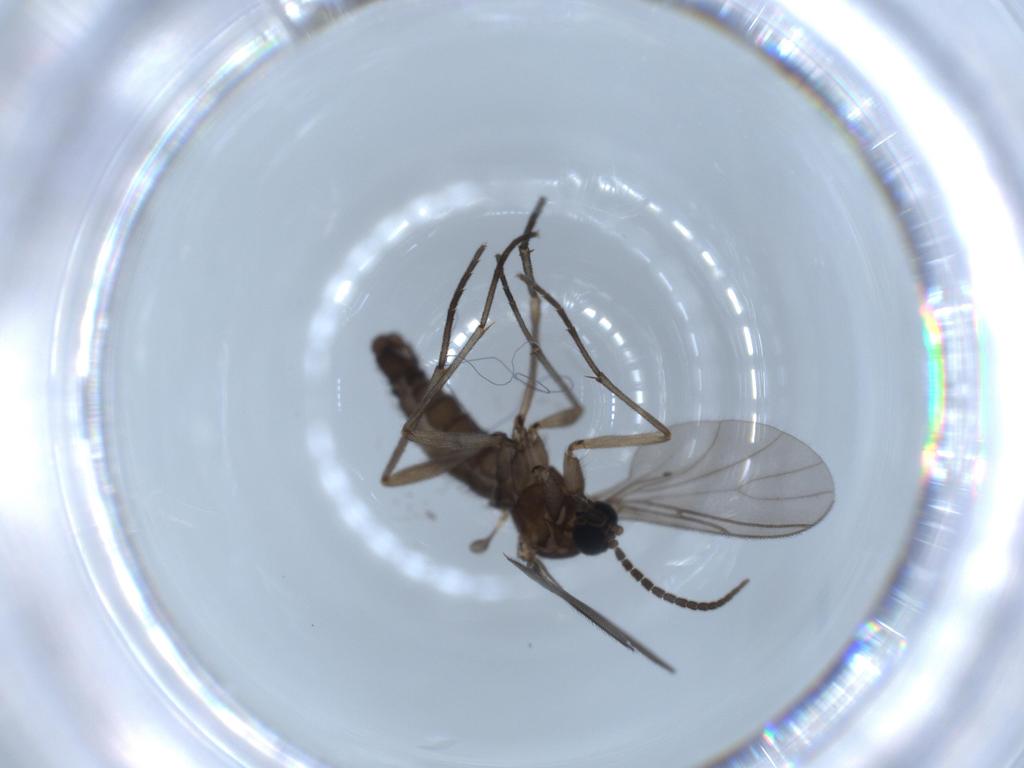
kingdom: Animalia
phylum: Arthropoda
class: Insecta
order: Diptera
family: Sciaridae
